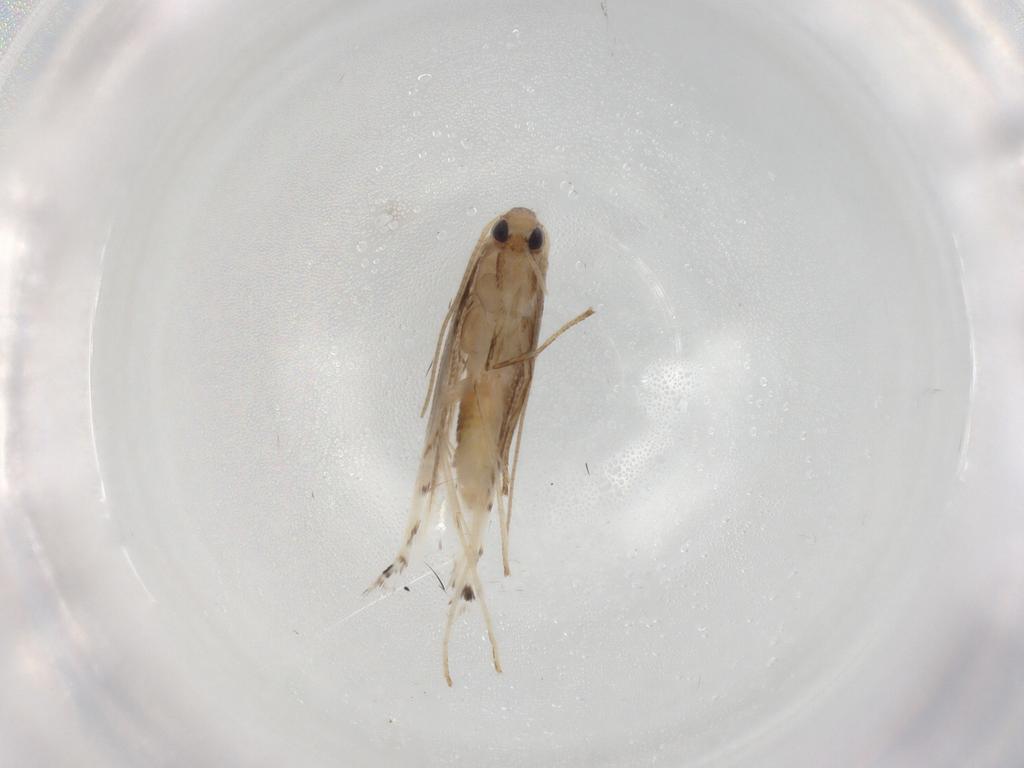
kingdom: Animalia
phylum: Arthropoda
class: Insecta
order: Lepidoptera
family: Gracillariidae
